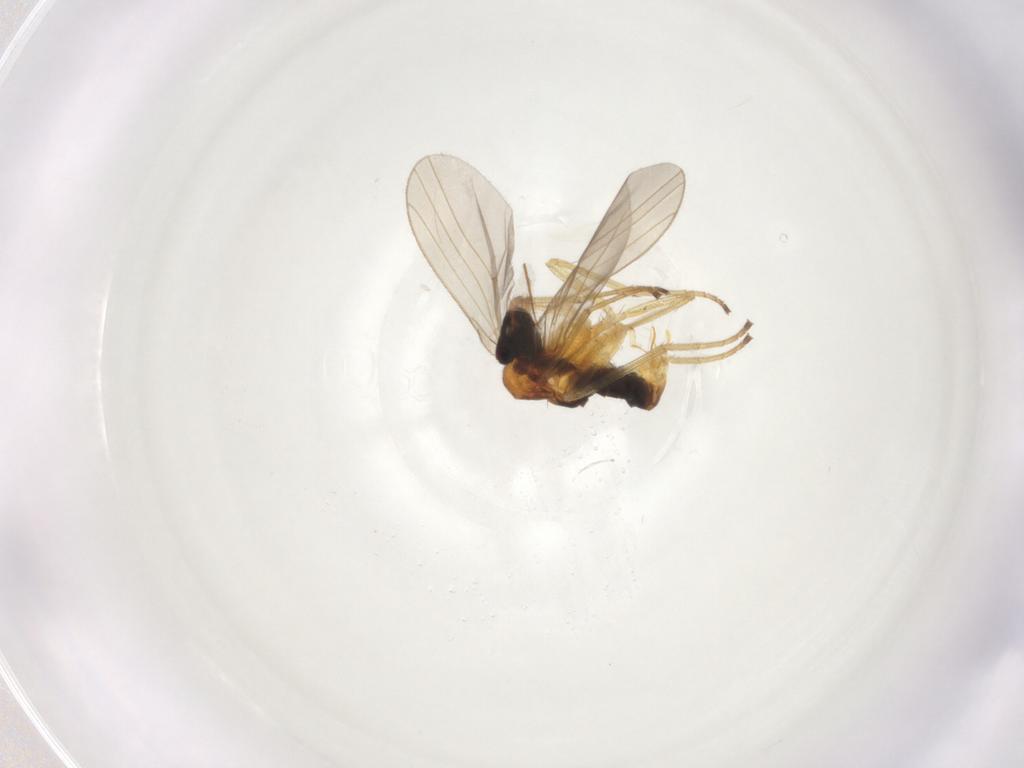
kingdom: Animalia
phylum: Arthropoda
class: Insecta
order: Diptera
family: Dolichopodidae
